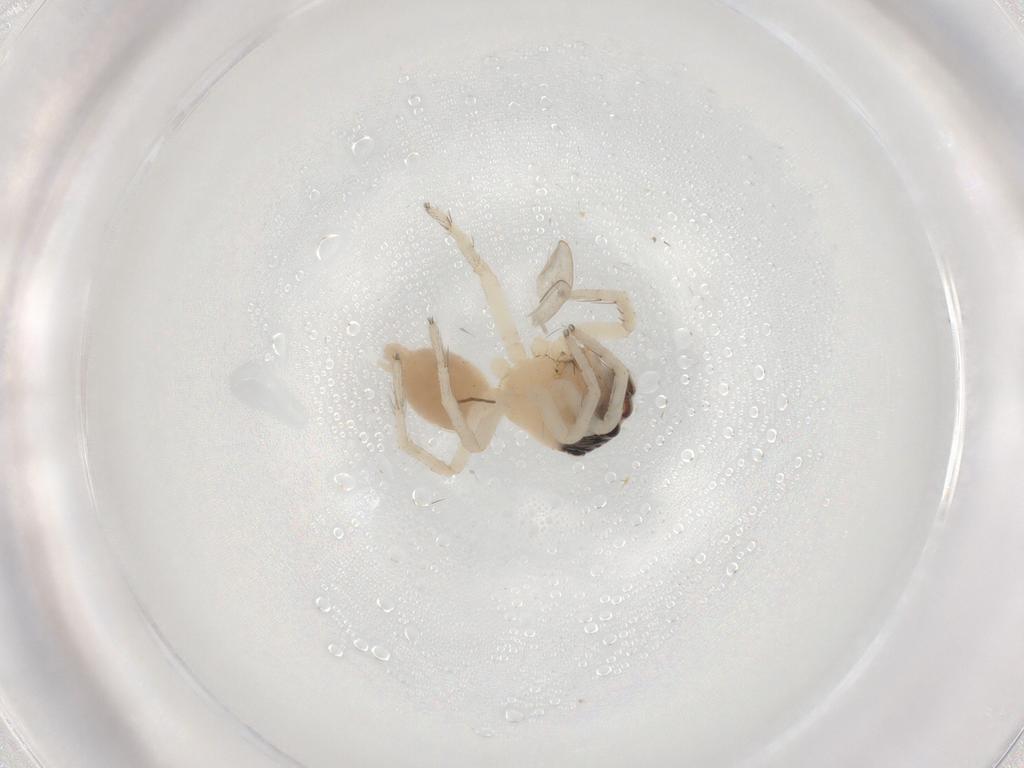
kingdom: Animalia
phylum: Arthropoda
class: Arachnida
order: Araneae
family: Salticidae
